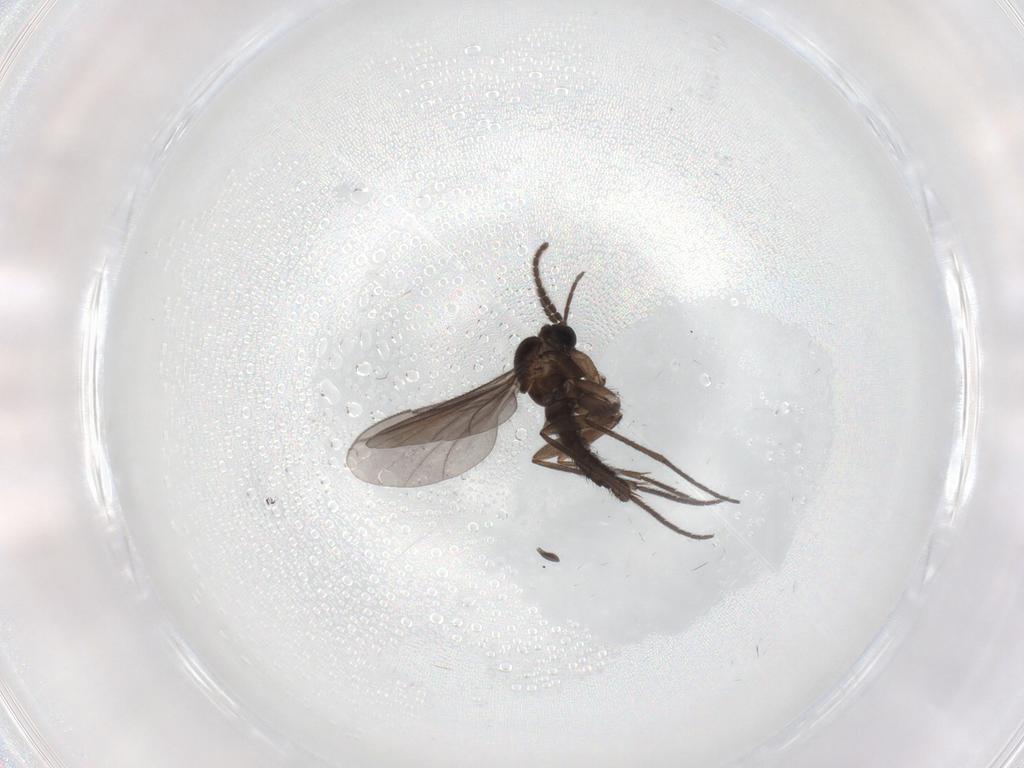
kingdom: Animalia
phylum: Arthropoda
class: Insecta
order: Diptera
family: Sciaridae
